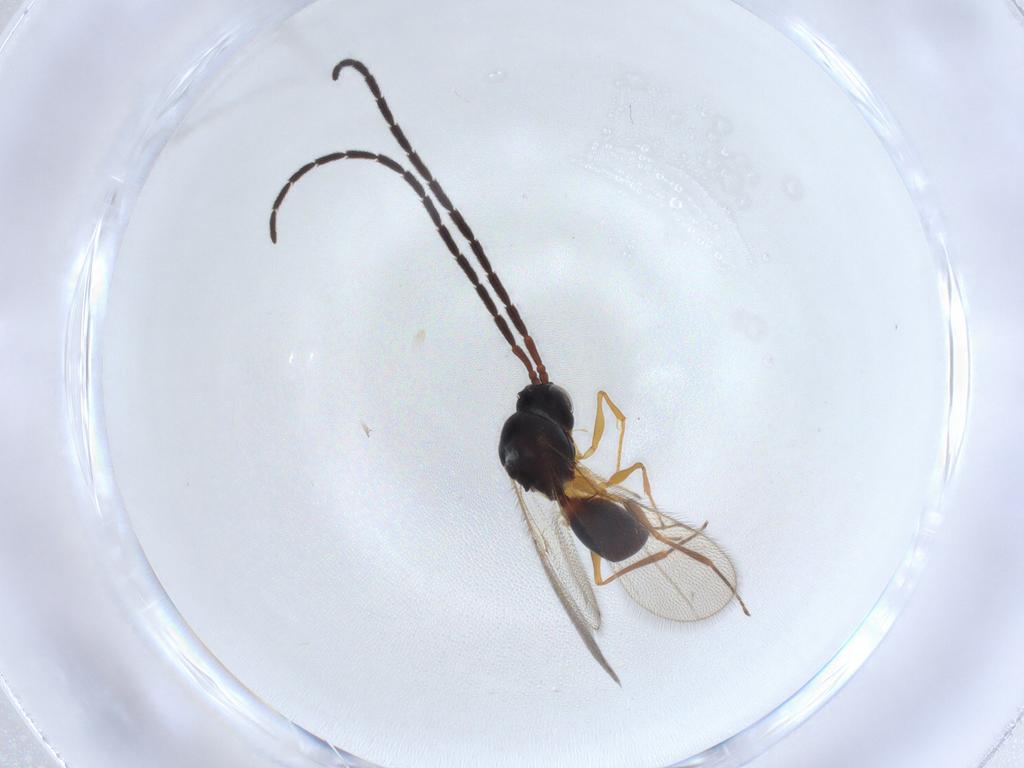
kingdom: Animalia
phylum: Arthropoda
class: Insecta
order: Hymenoptera
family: Figitidae
